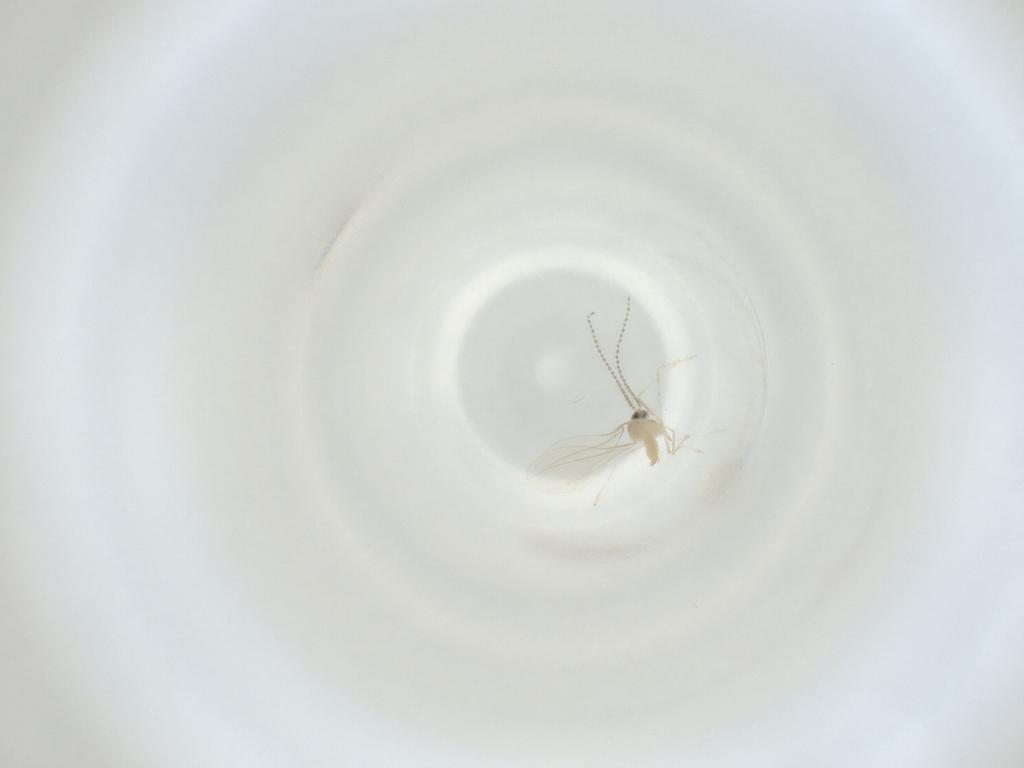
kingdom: Animalia
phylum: Arthropoda
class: Insecta
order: Diptera
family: Cecidomyiidae
